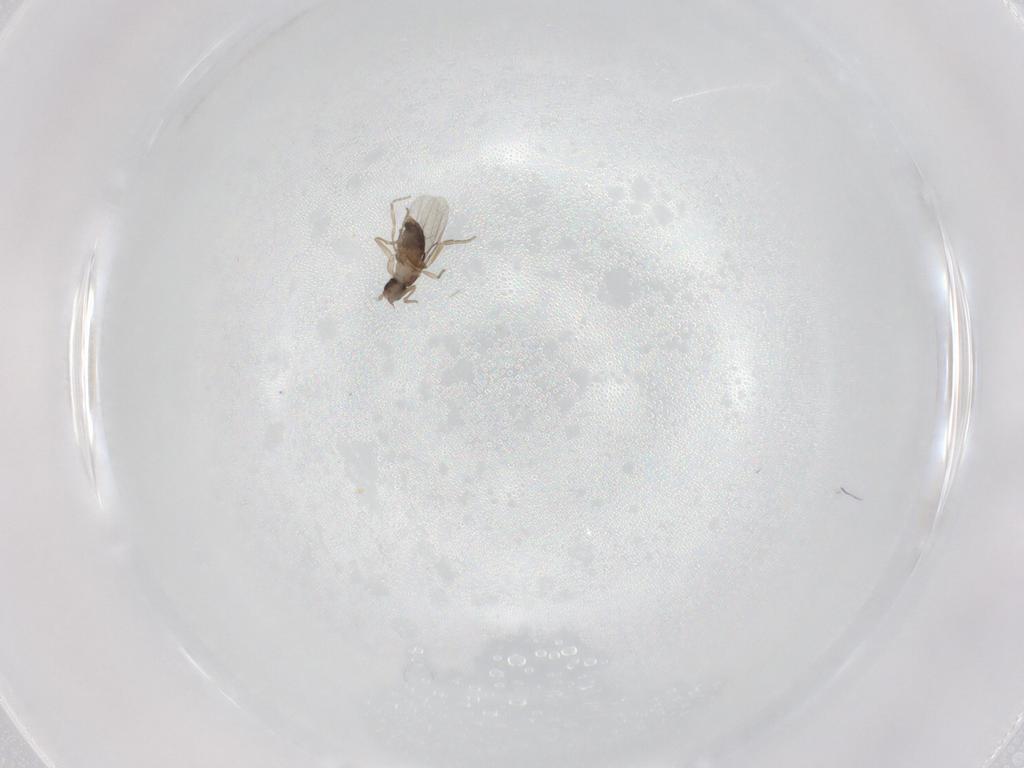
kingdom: Animalia
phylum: Arthropoda
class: Insecta
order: Diptera
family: Phoridae
